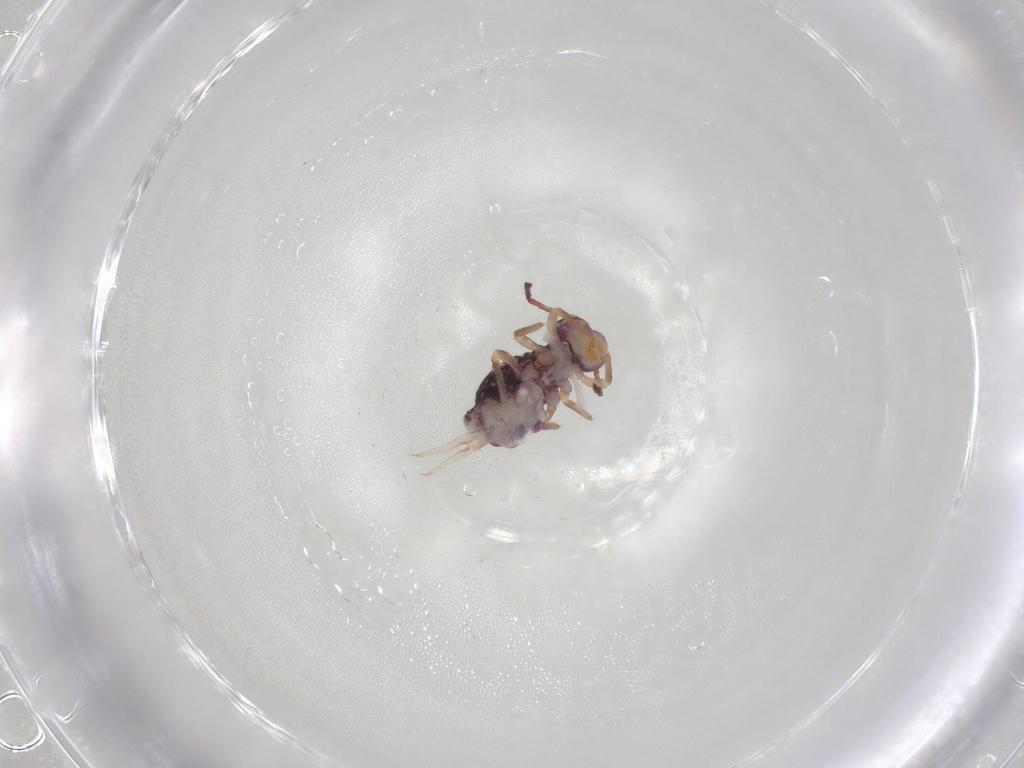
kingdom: Animalia
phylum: Arthropoda
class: Collembola
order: Symphypleona
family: Dicyrtomidae
